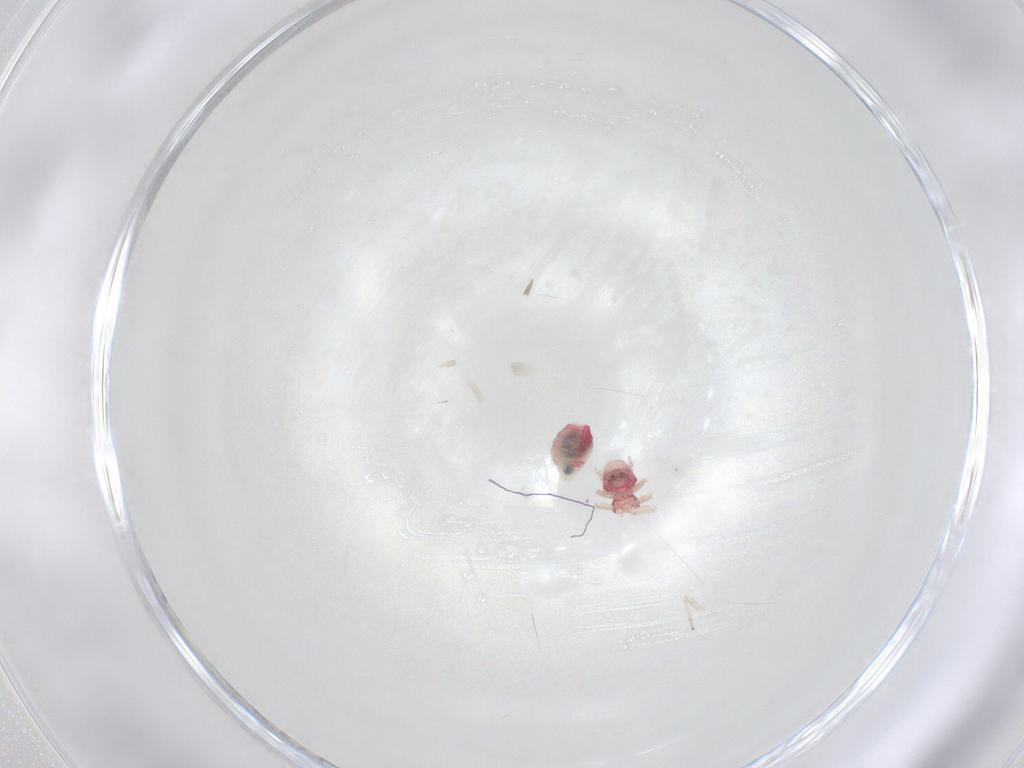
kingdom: Animalia
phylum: Arthropoda
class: Insecta
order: Psocodea
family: Caeciliusidae
